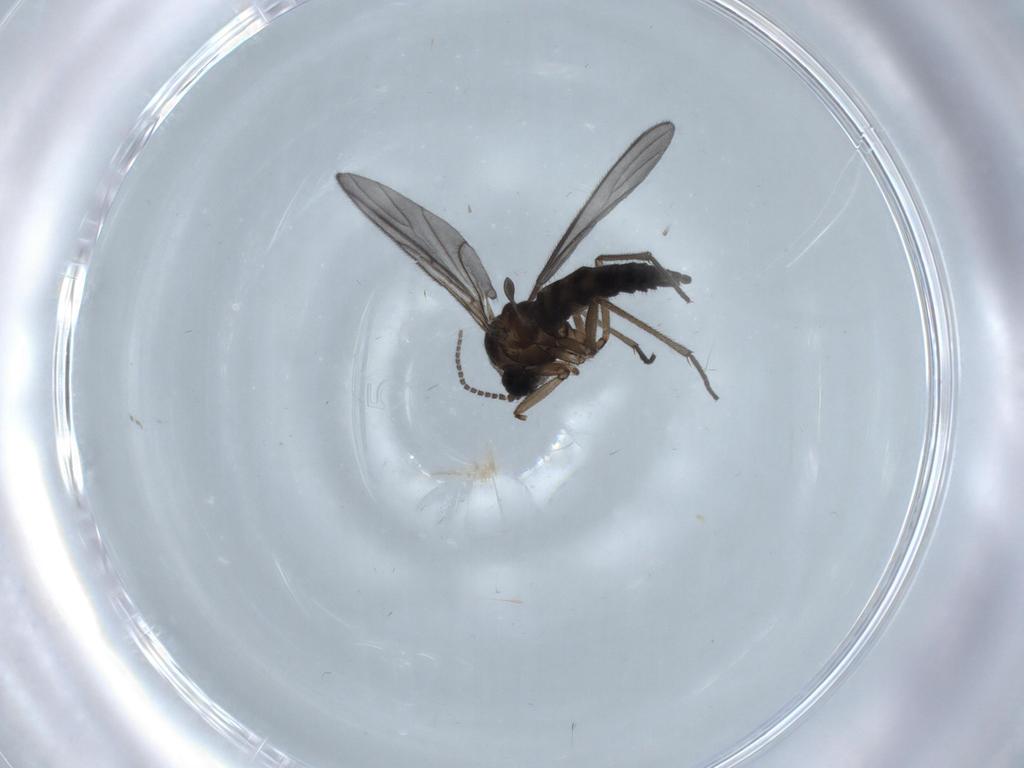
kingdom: Animalia
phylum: Arthropoda
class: Insecta
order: Diptera
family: Sciaridae
